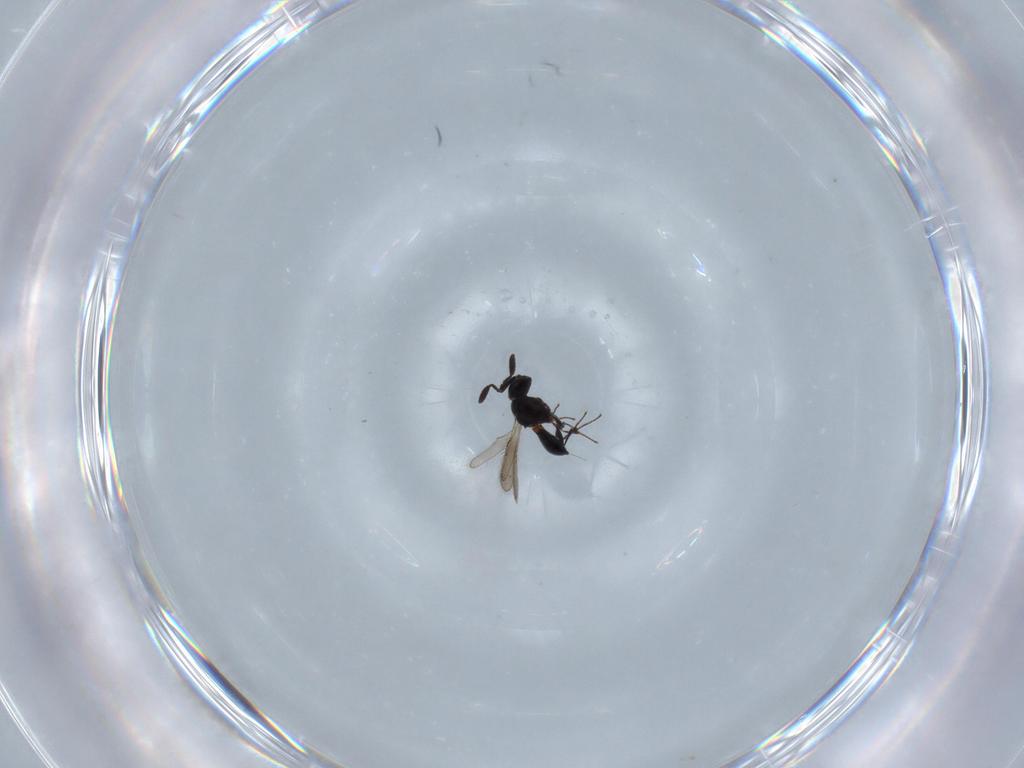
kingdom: Animalia
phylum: Arthropoda
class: Insecta
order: Hymenoptera
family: Scelionidae
